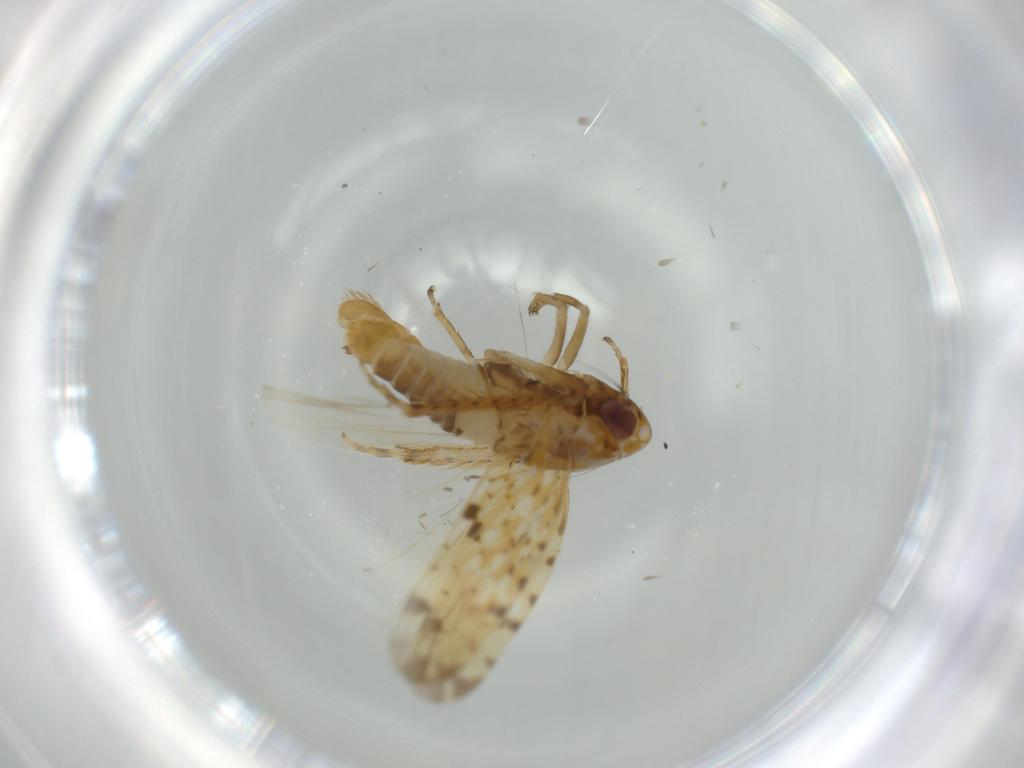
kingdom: Animalia
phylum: Arthropoda
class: Insecta
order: Hemiptera
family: Cicadellidae
